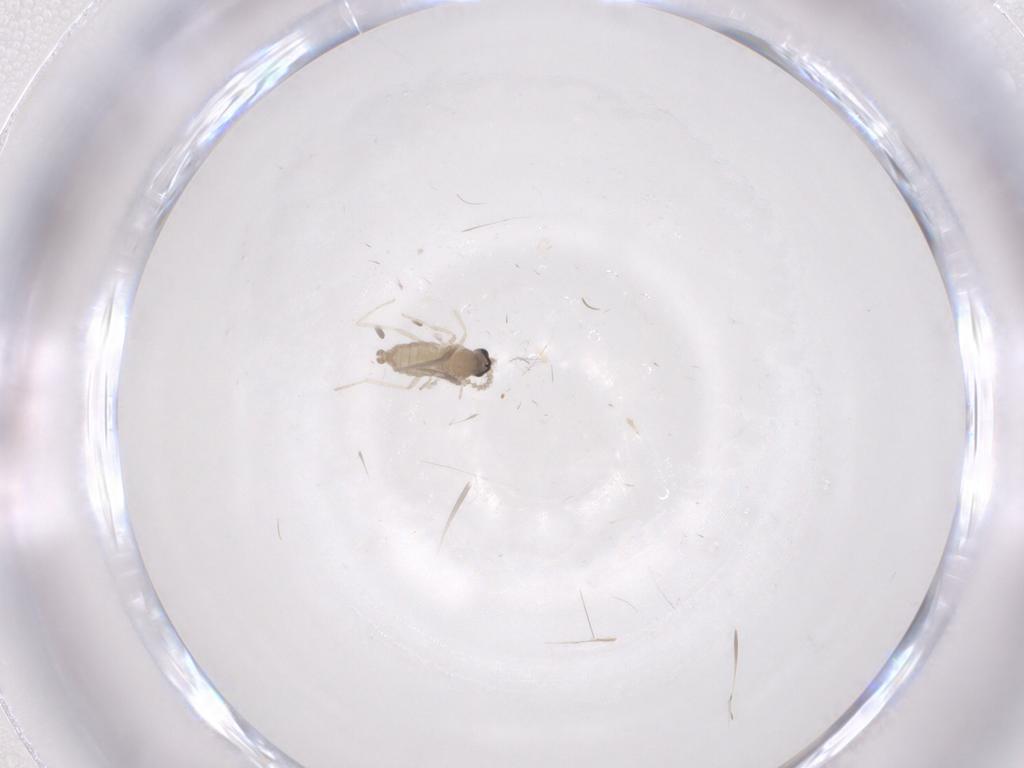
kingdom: Animalia
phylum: Arthropoda
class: Insecta
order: Diptera
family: Cecidomyiidae
